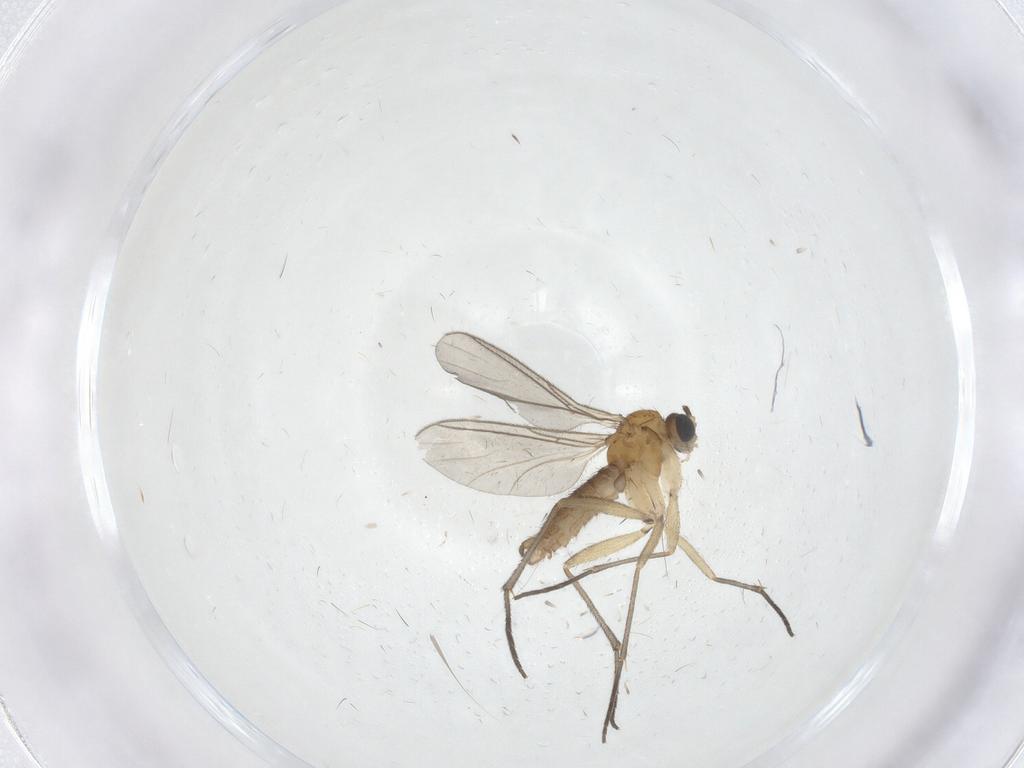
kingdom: Animalia
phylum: Arthropoda
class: Insecta
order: Diptera
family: Sciaridae
